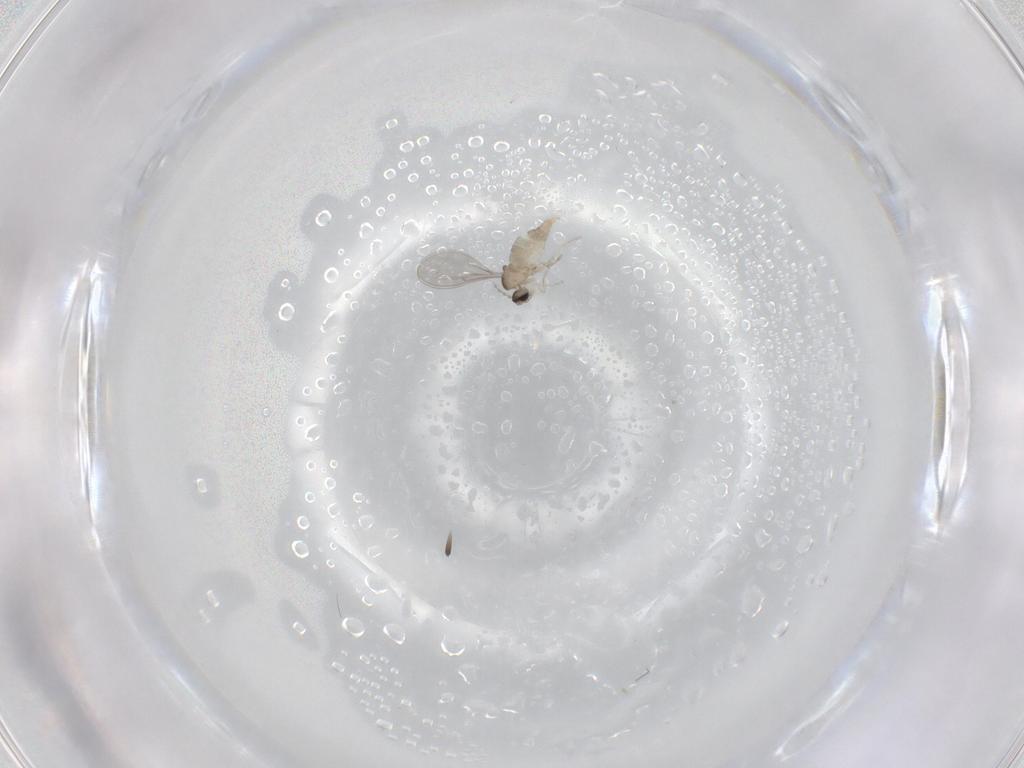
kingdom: Animalia
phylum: Arthropoda
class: Insecta
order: Diptera
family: Cecidomyiidae
